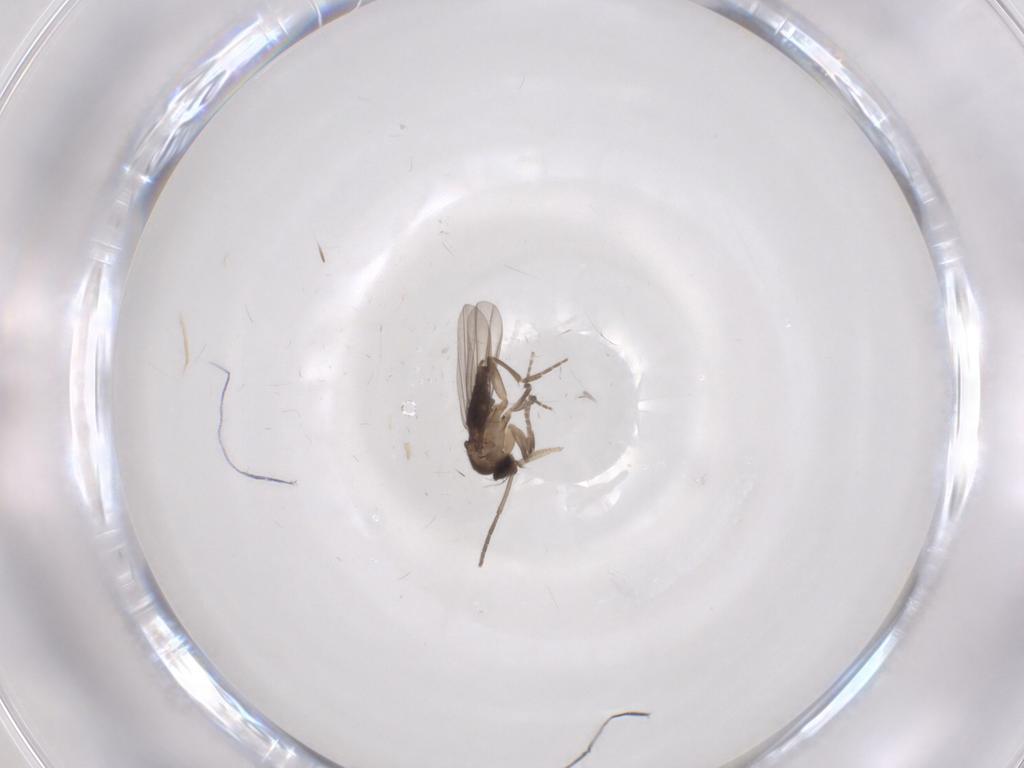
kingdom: Animalia
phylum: Arthropoda
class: Insecta
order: Diptera
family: Sciaridae
